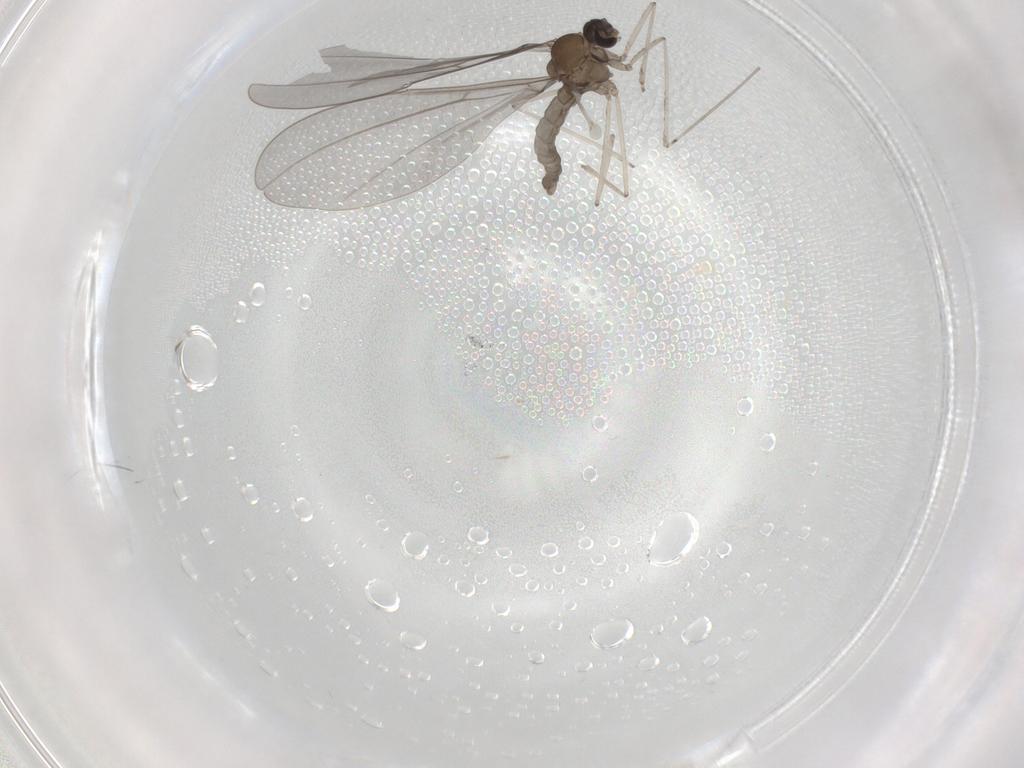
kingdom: Animalia
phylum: Arthropoda
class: Insecta
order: Diptera
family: Cecidomyiidae
